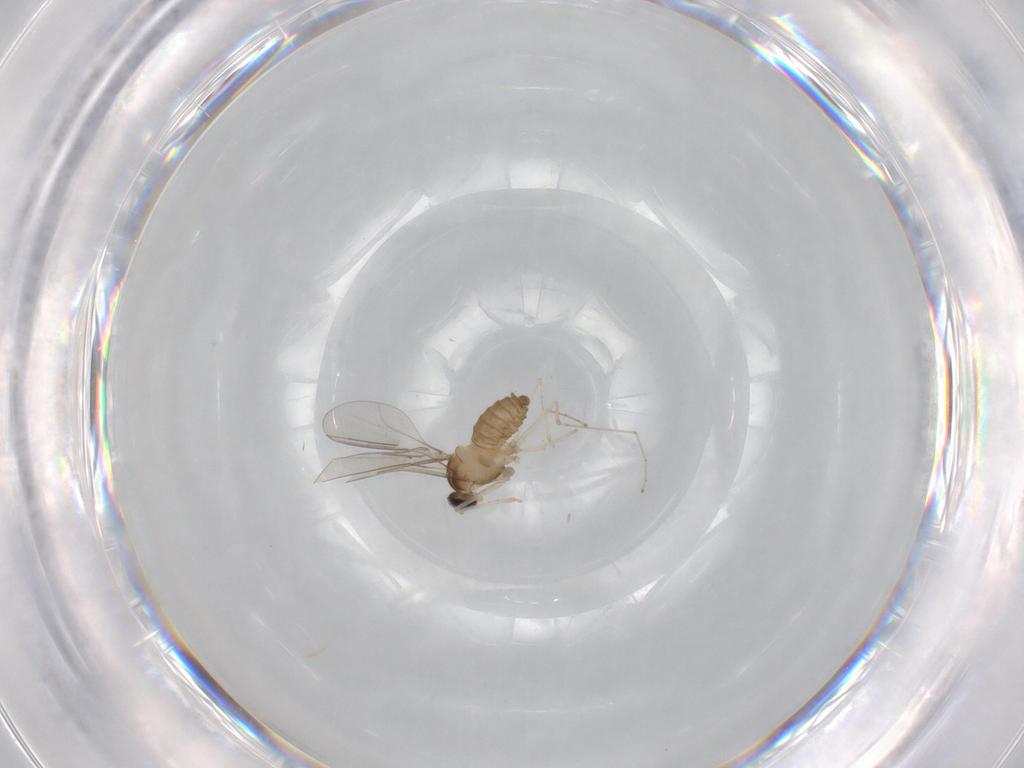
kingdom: Animalia
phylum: Arthropoda
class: Insecta
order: Diptera
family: Cecidomyiidae
